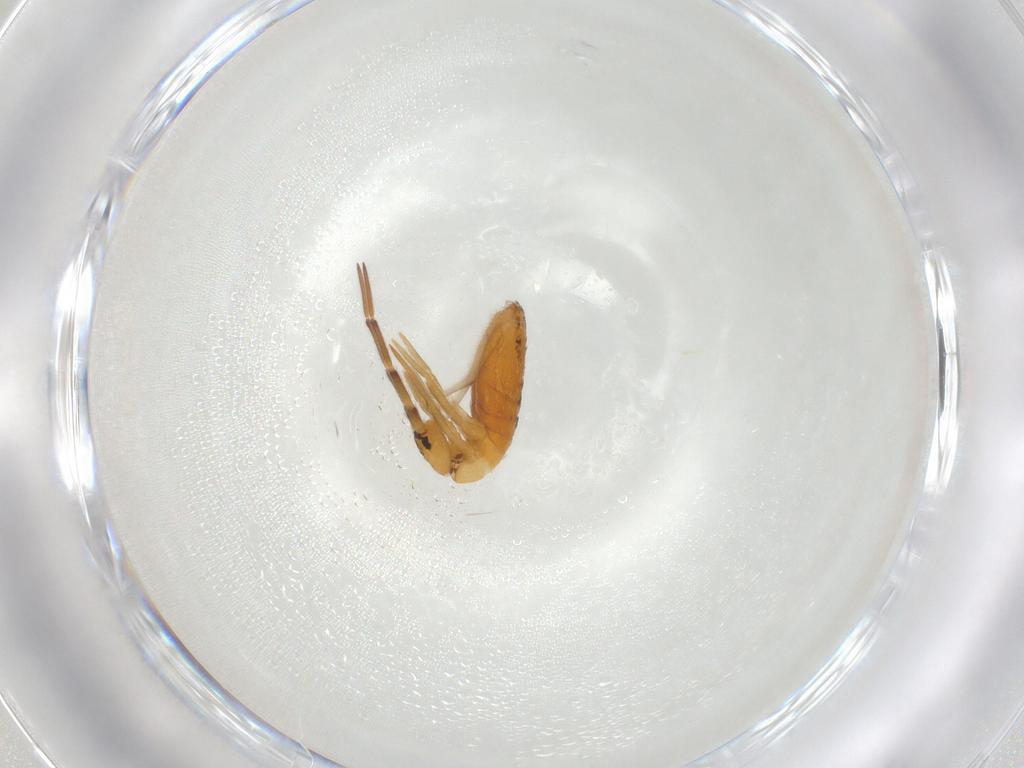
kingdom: Animalia
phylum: Arthropoda
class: Collembola
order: Entomobryomorpha
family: Entomobryidae
